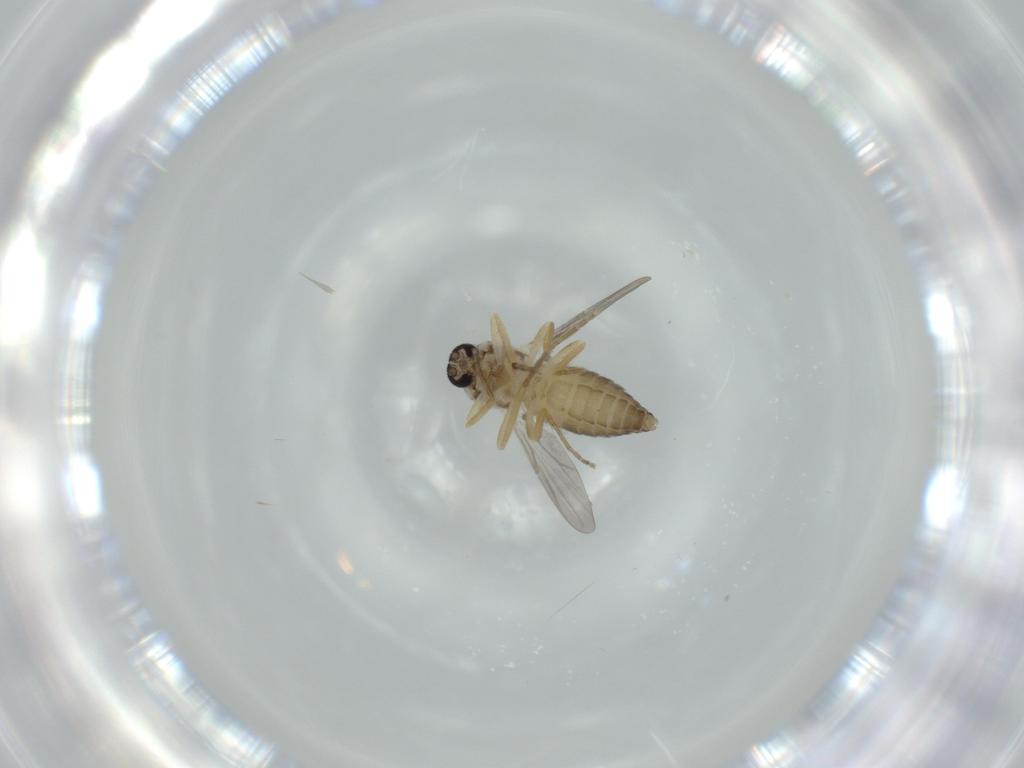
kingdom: Animalia
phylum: Arthropoda
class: Insecta
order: Diptera
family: Ceratopogonidae
